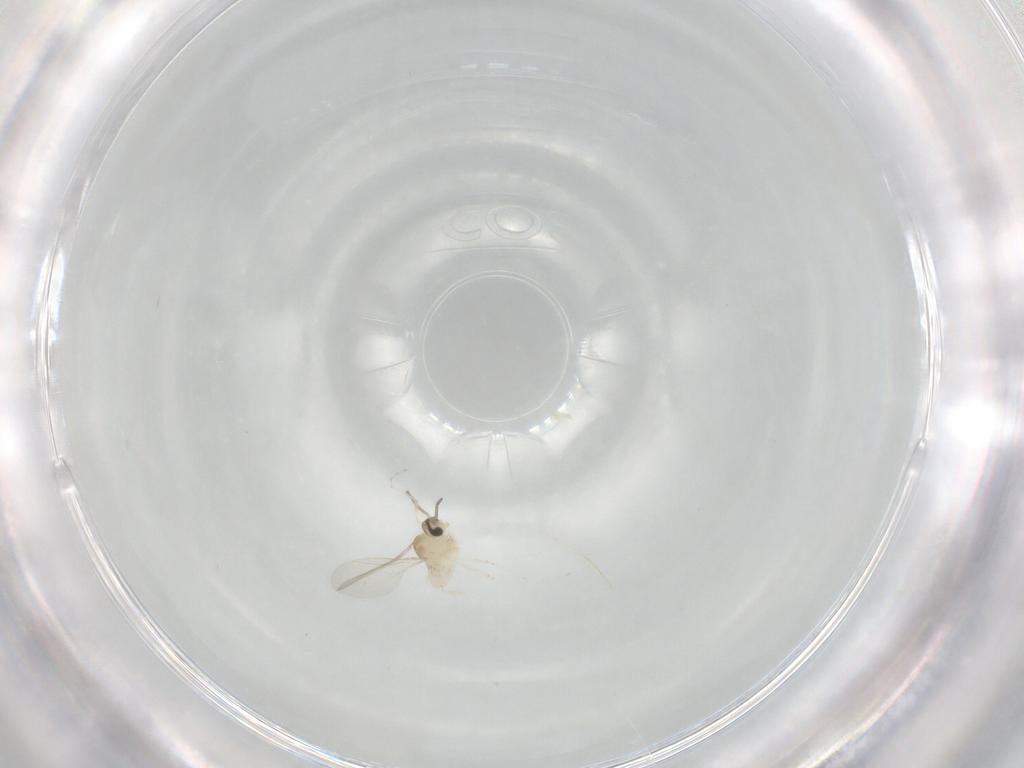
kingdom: Animalia
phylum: Arthropoda
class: Insecta
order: Diptera
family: Cecidomyiidae
